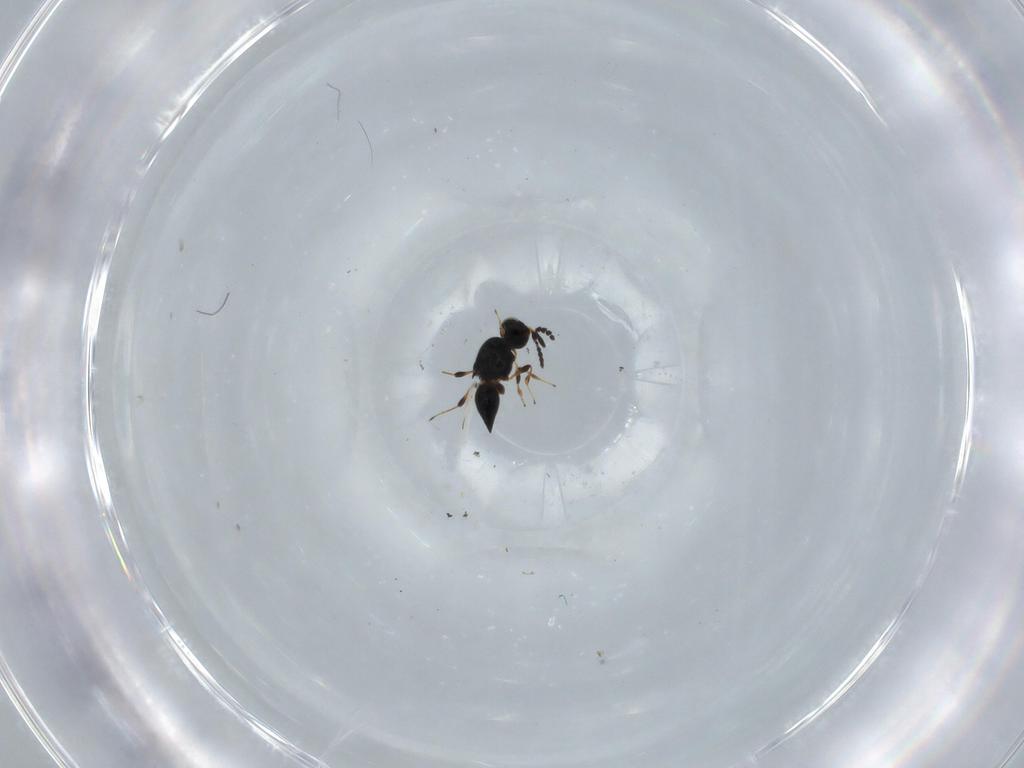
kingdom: Animalia
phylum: Arthropoda
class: Insecta
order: Hymenoptera
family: Platygastridae
